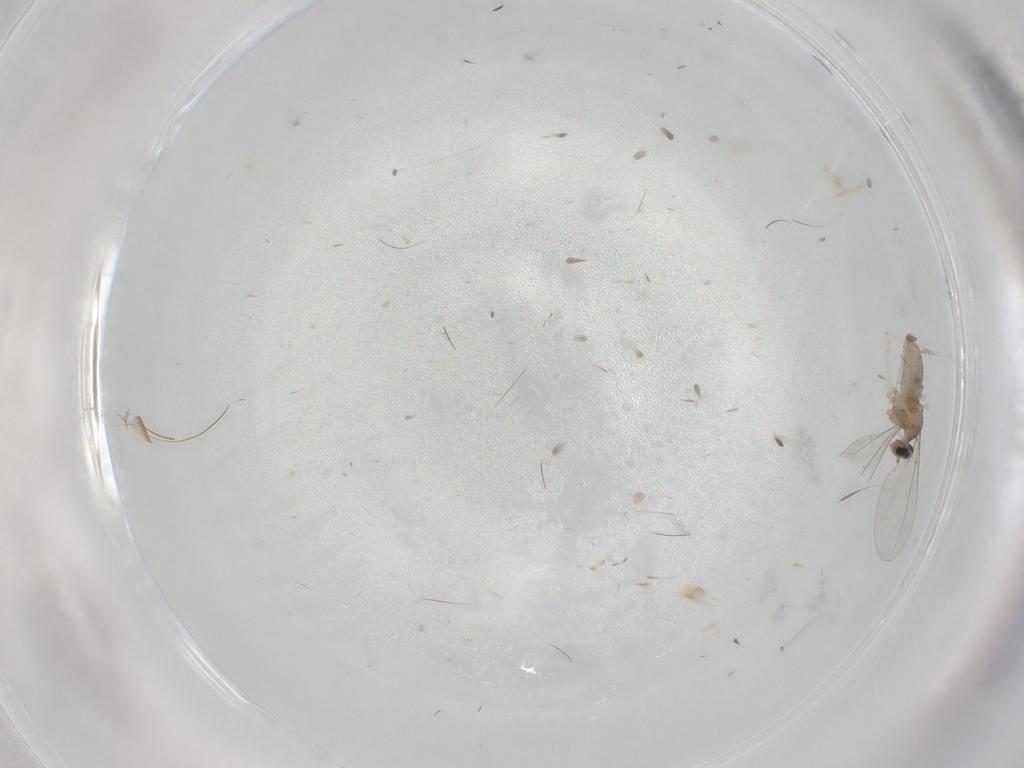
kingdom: Animalia
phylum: Arthropoda
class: Insecta
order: Diptera
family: Cecidomyiidae
